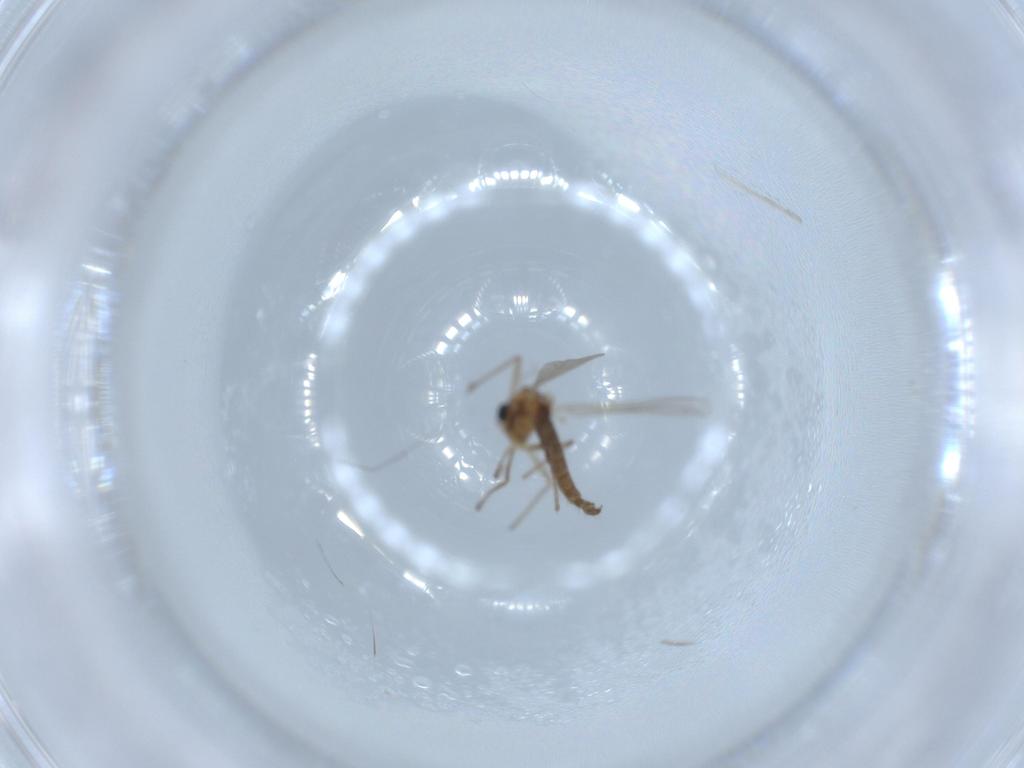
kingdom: Animalia
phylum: Arthropoda
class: Insecta
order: Diptera
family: Chironomidae
